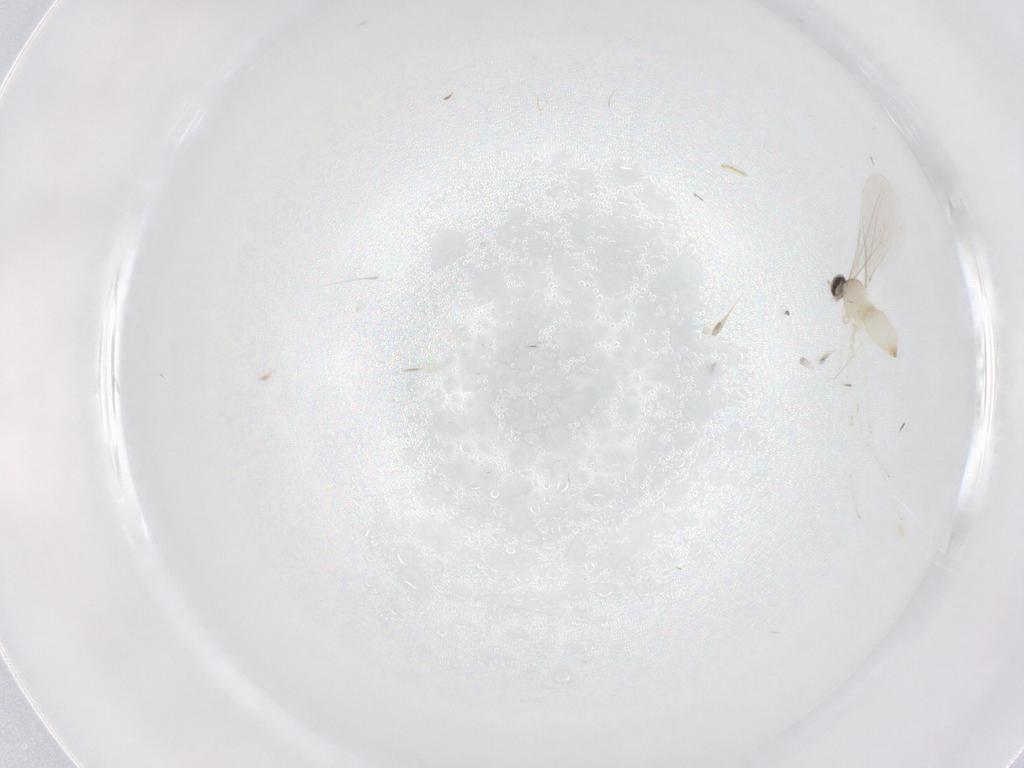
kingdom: Animalia
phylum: Arthropoda
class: Insecta
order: Diptera
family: Cecidomyiidae
